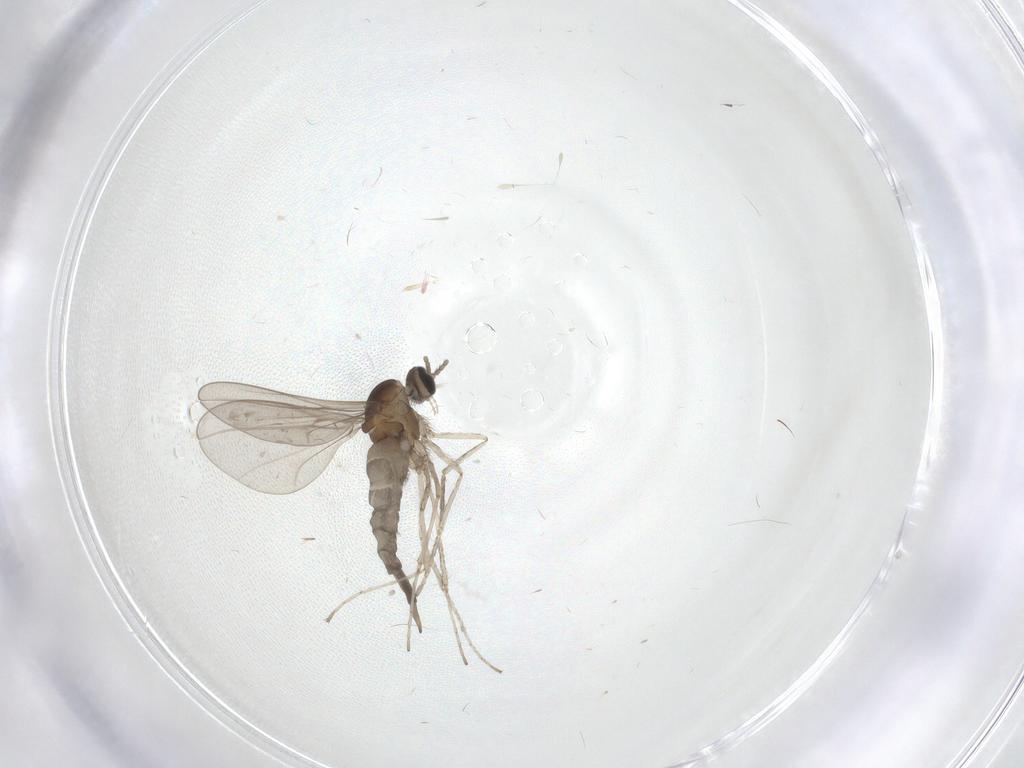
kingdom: Animalia
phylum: Arthropoda
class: Insecta
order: Diptera
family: Cecidomyiidae
